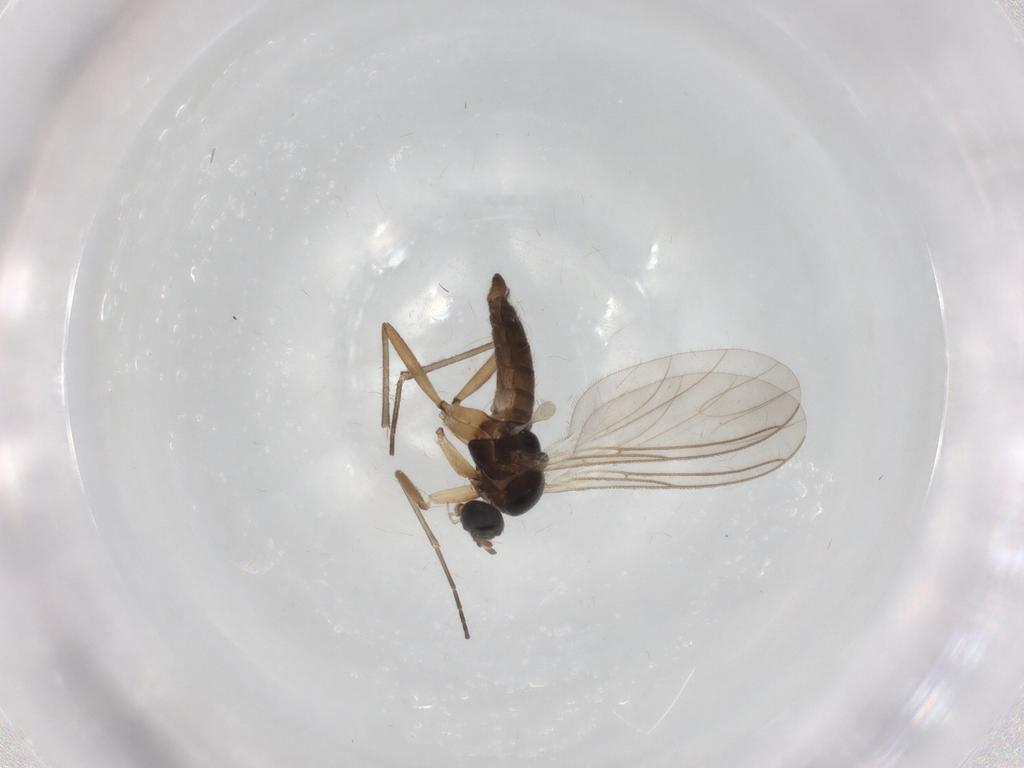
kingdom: Animalia
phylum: Arthropoda
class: Insecta
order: Diptera
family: Sciaridae
